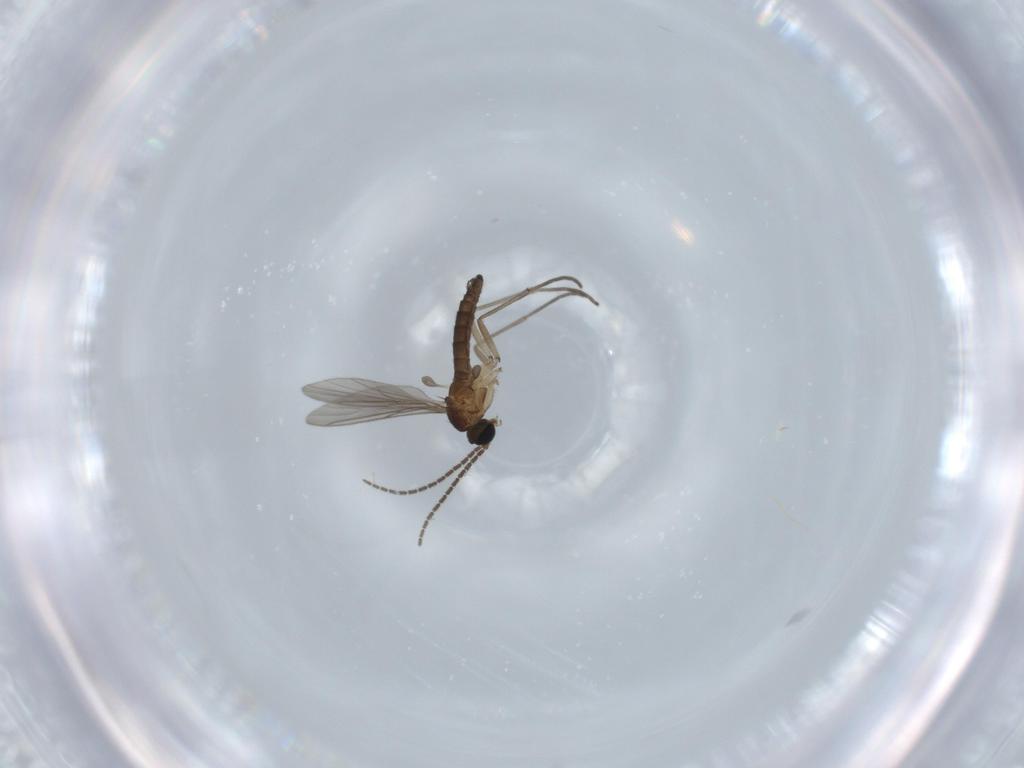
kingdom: Animalia
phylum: Arthropoda
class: Insecta
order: Diptera
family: Sciaridae
